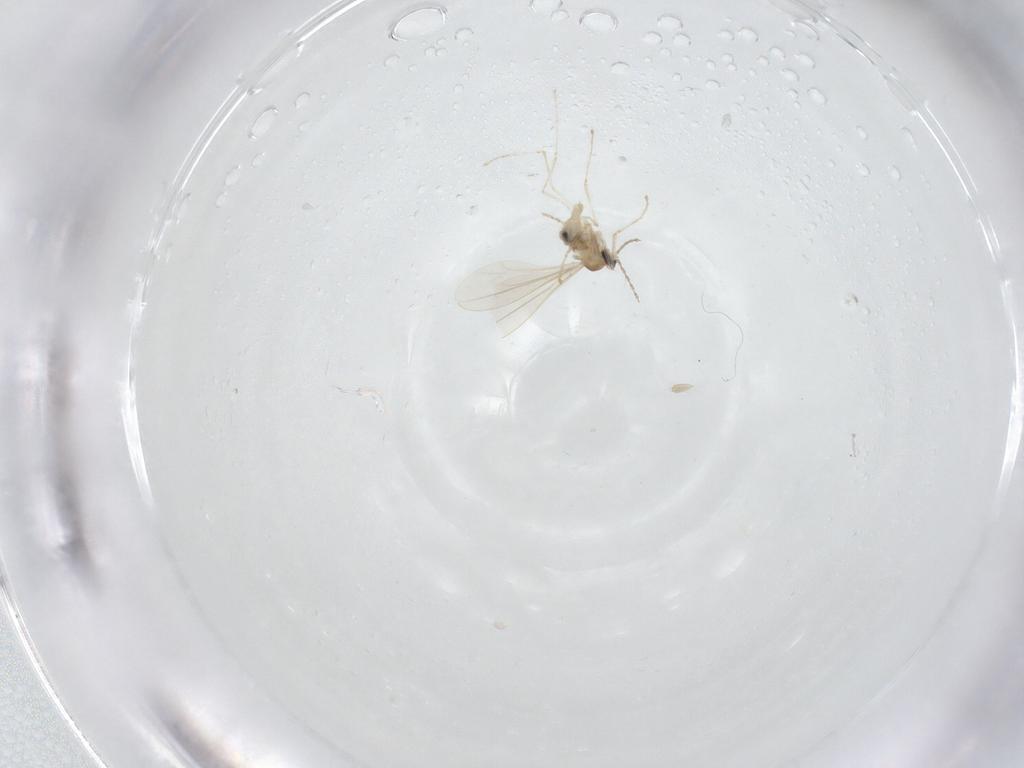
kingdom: Animalia
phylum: Arthropoda
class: Insecta
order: Diptera
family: Cecidomyiidae
